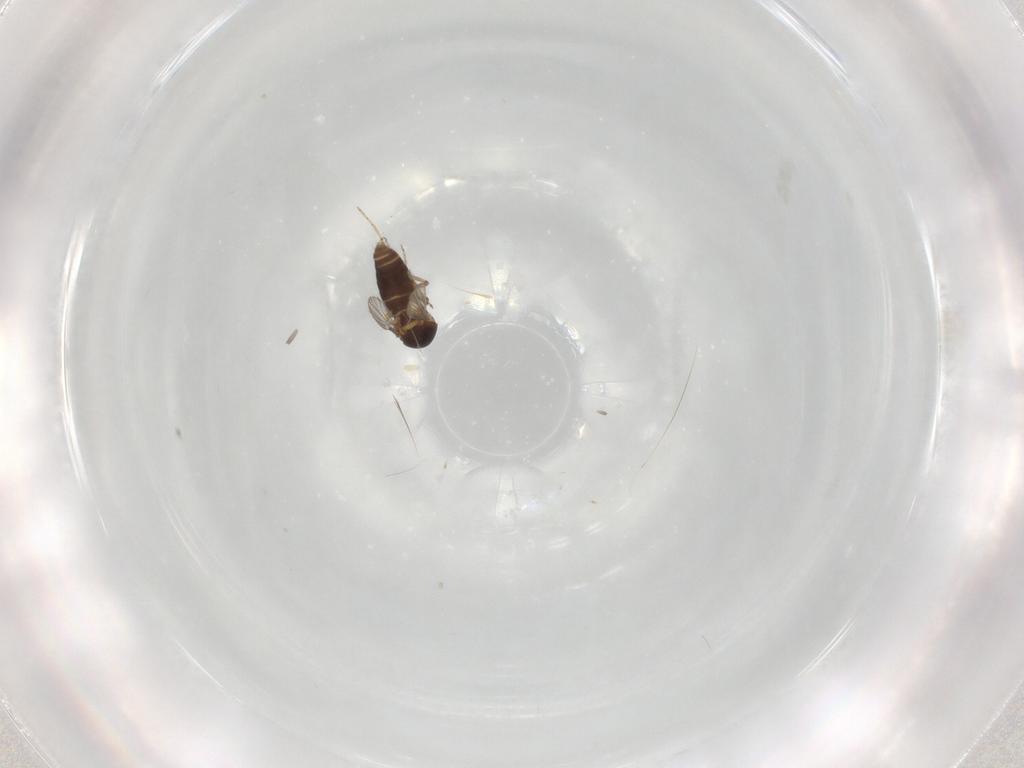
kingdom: Animalia
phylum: Arthropoda
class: Insecta
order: Diptera
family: Ceratopogonidae
